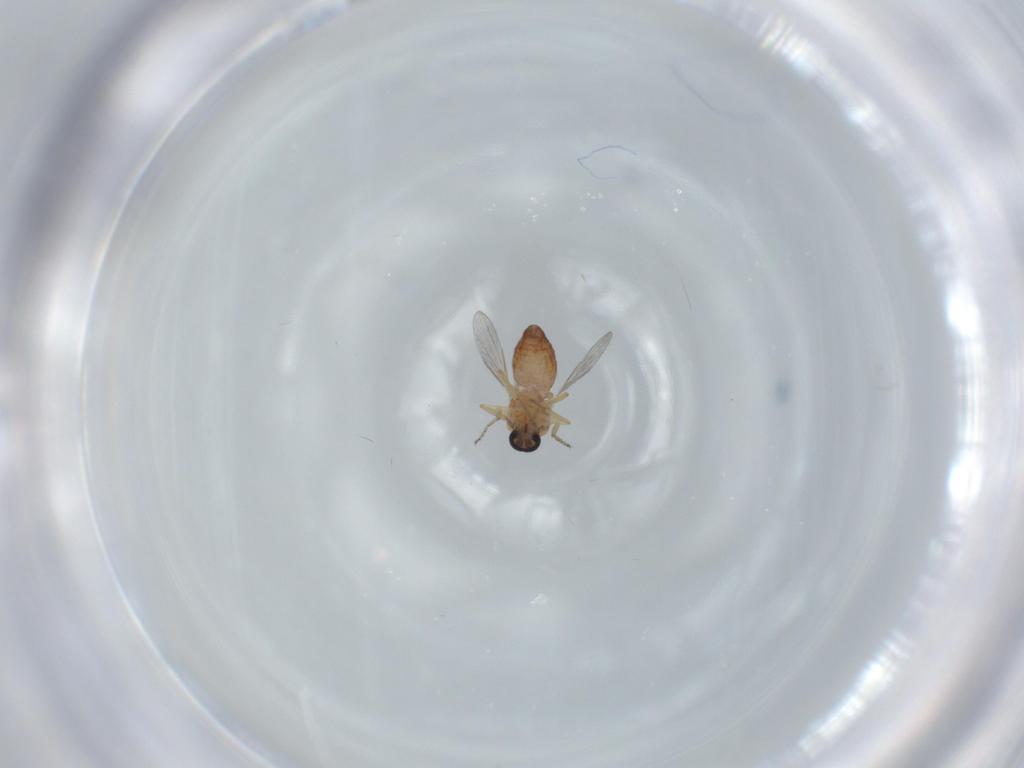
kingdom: Animalia
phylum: Arthropoda
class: Insecta
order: Diptera
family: Ceratopogonidae
